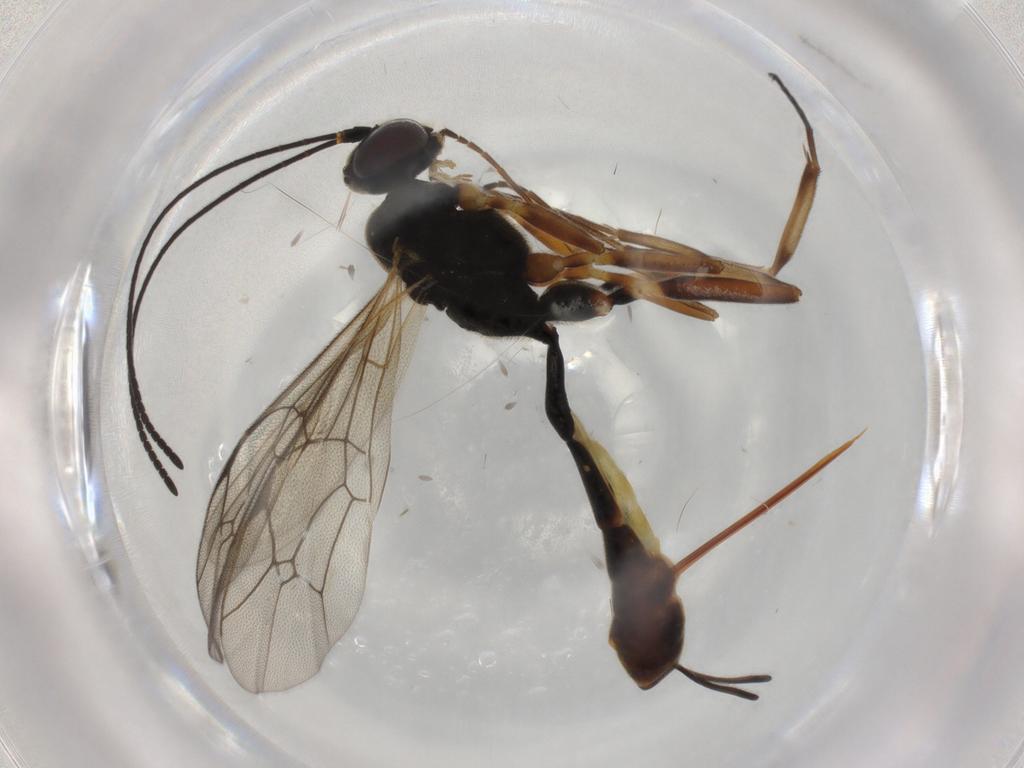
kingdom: Animalia
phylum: Arthropoda
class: Insecta
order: Hymenoptera
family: Ichneumonidae
